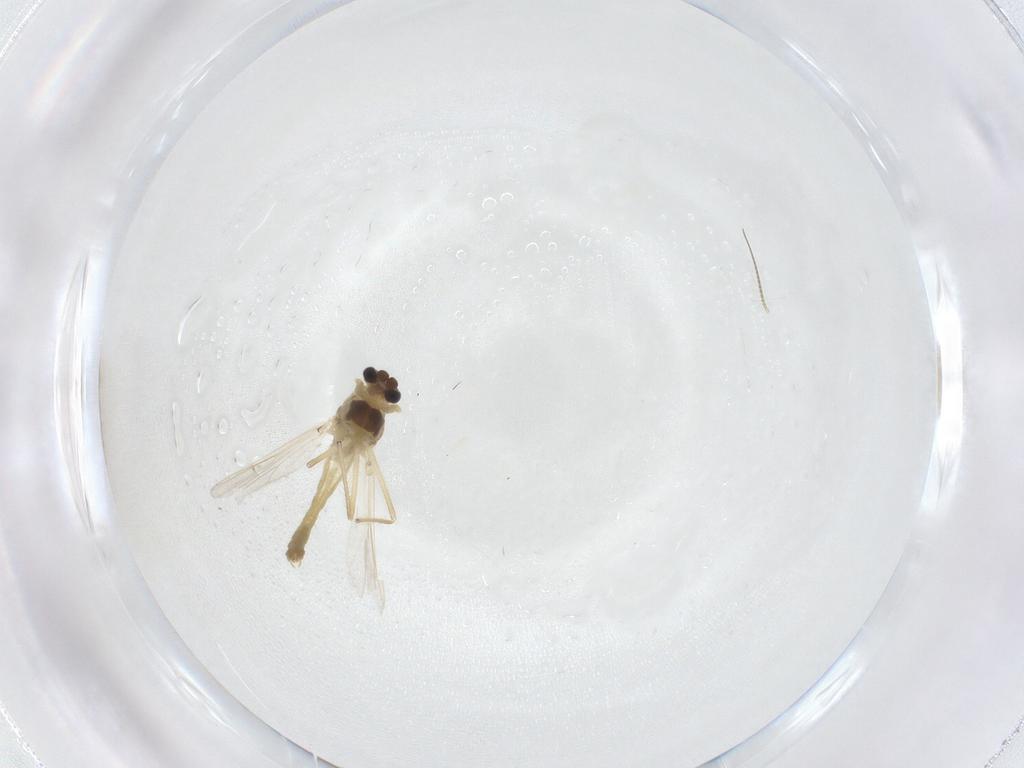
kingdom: Animalia
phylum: Arthropoda
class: Insecta
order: Diptera
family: Chironomidae
